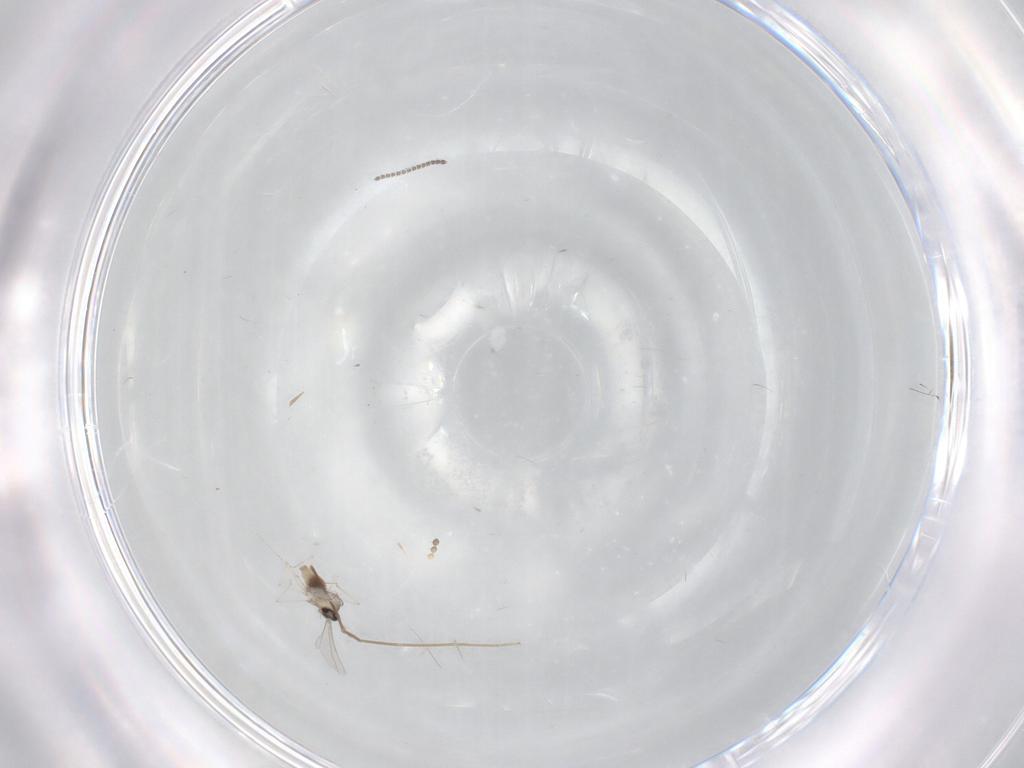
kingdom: Animalia
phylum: Arthropoda
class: Insecta
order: Diptera
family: Cecidomyiidae
